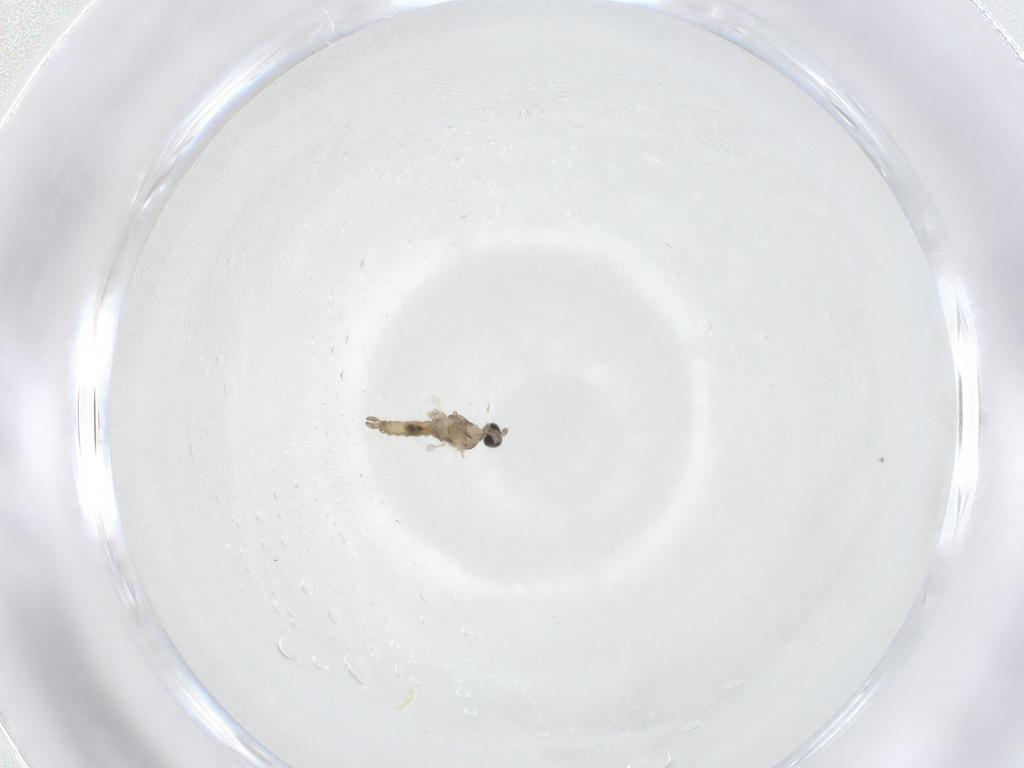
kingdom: Animalia
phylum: Arthropoda
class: Insecta
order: Diptera
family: Cecidomyiidae
